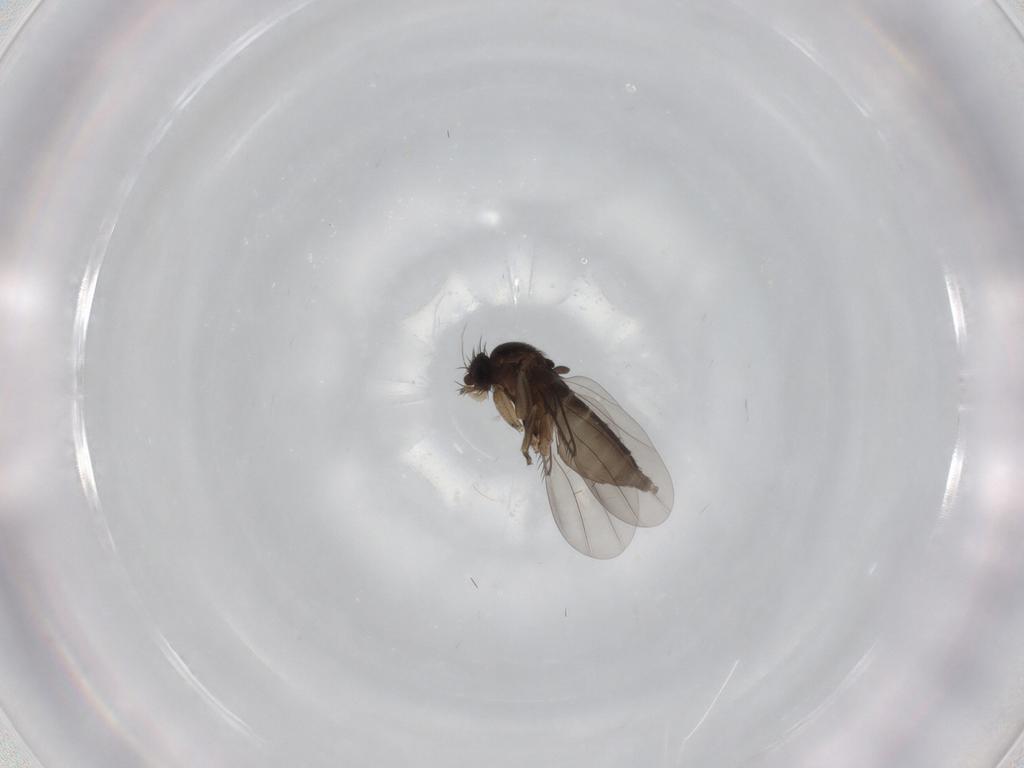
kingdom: Animalia
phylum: Arthropoda
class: Insecta
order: Diptera
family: Phoridae
